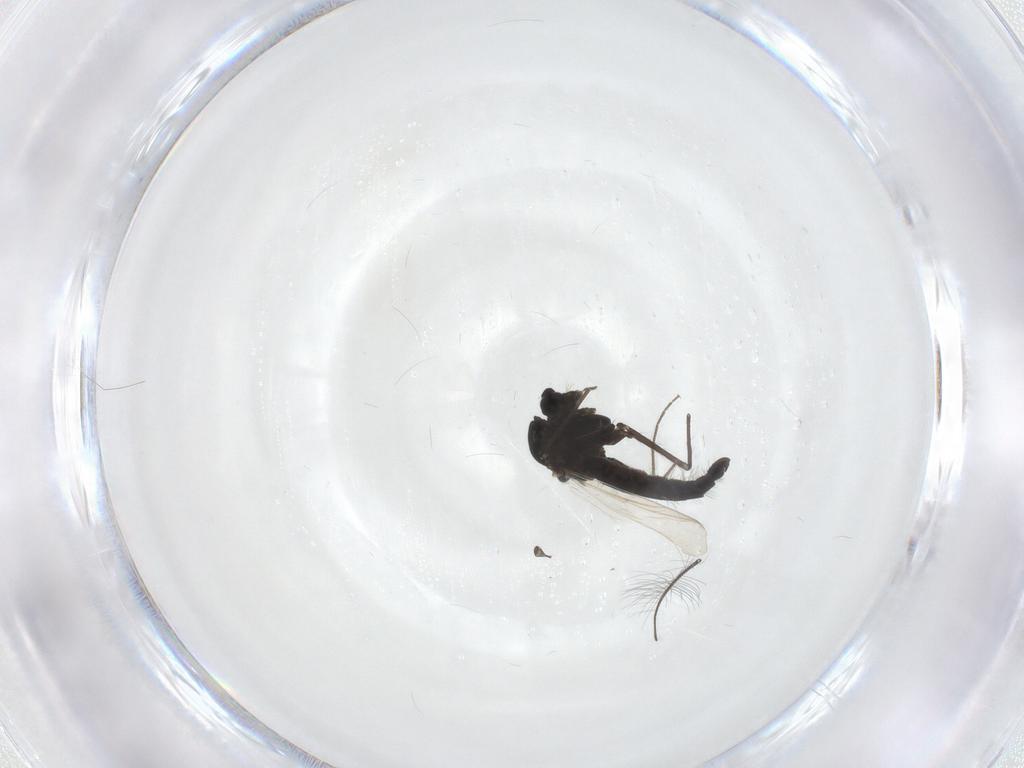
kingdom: Animalia
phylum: Arthropoda
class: Insecta
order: Diptera
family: Chironomidae
